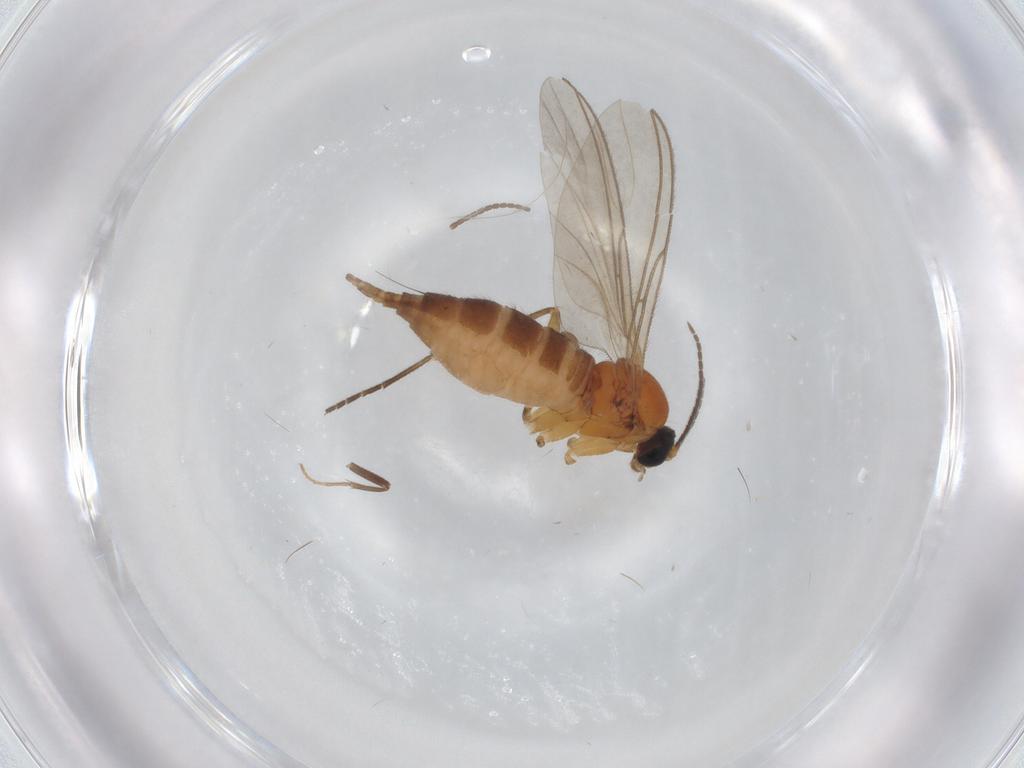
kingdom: Animalia
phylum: Arthropoda
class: Insecta
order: Diptera
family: Sciaridae
